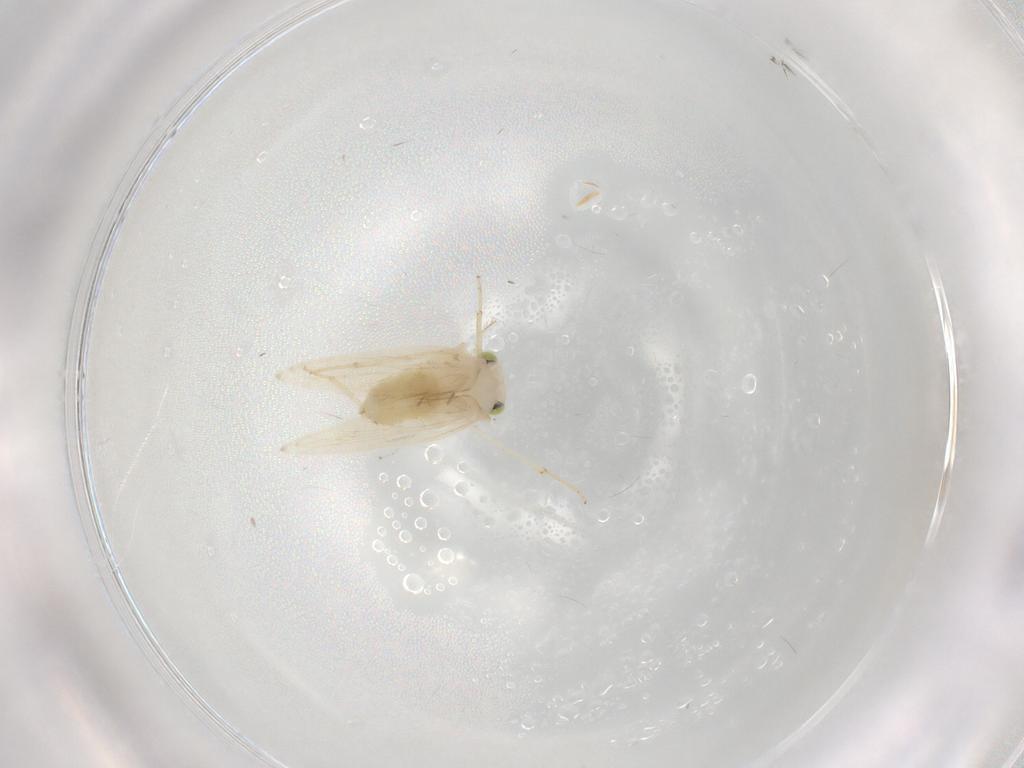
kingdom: Animalia
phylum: Arthropoda
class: Insecta
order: Psocodea
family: Lepidopsocidae
